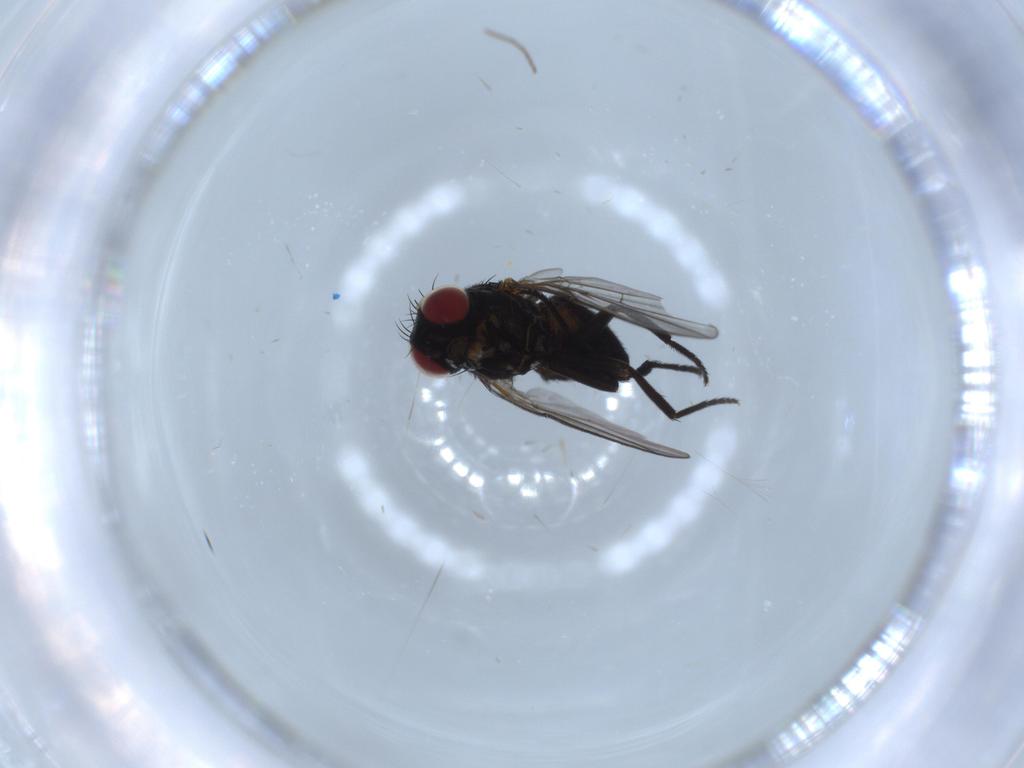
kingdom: Animalia
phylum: Arthropoda
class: Insecta
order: Diptera
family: Agromyzidae
